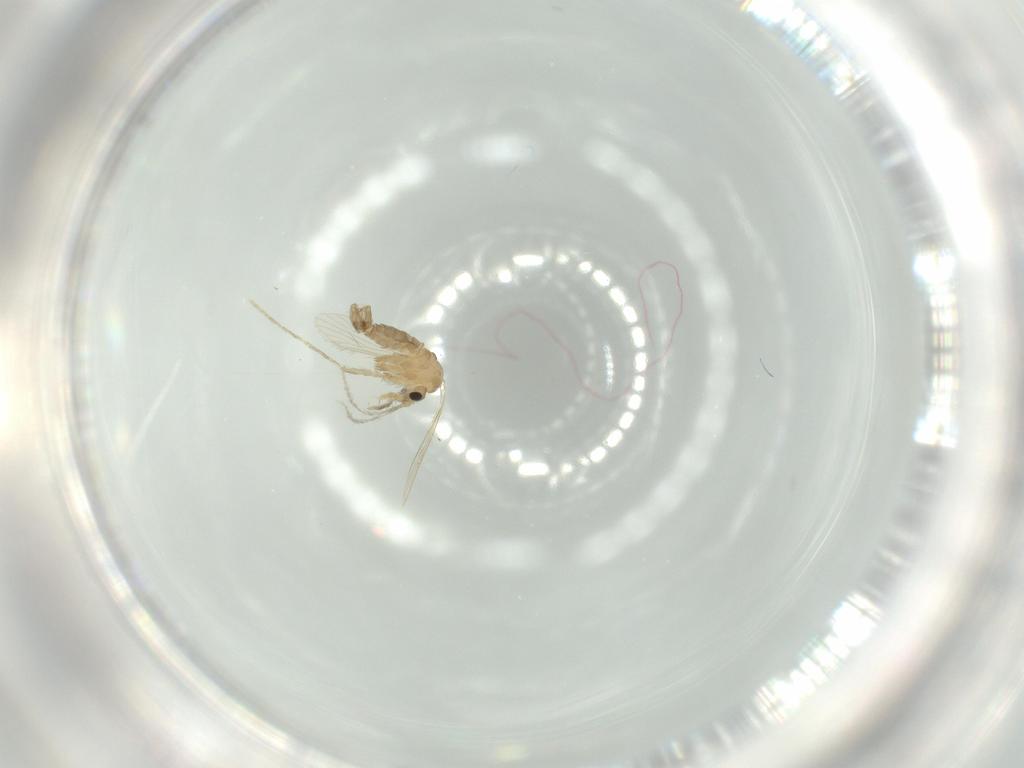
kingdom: Animalia
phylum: Arthropoda
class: Insecta
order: Diptera
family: Psychodidae
